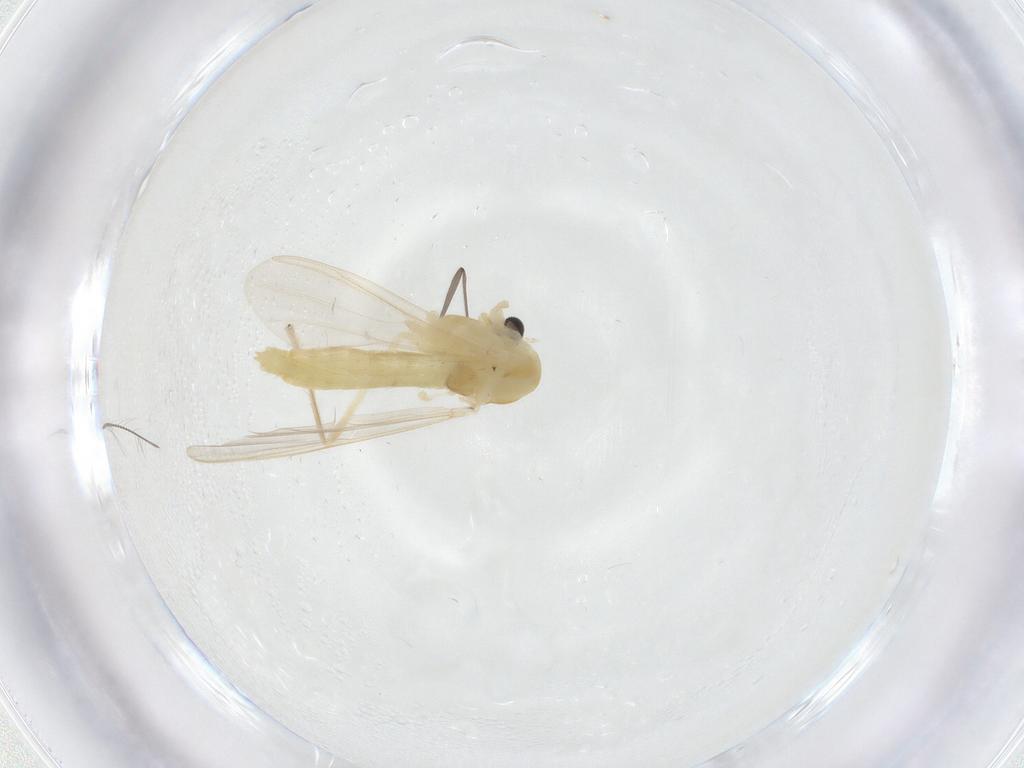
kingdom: Animalia
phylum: Arthropoda
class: Insecta
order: Diptera
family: Chironomidae
